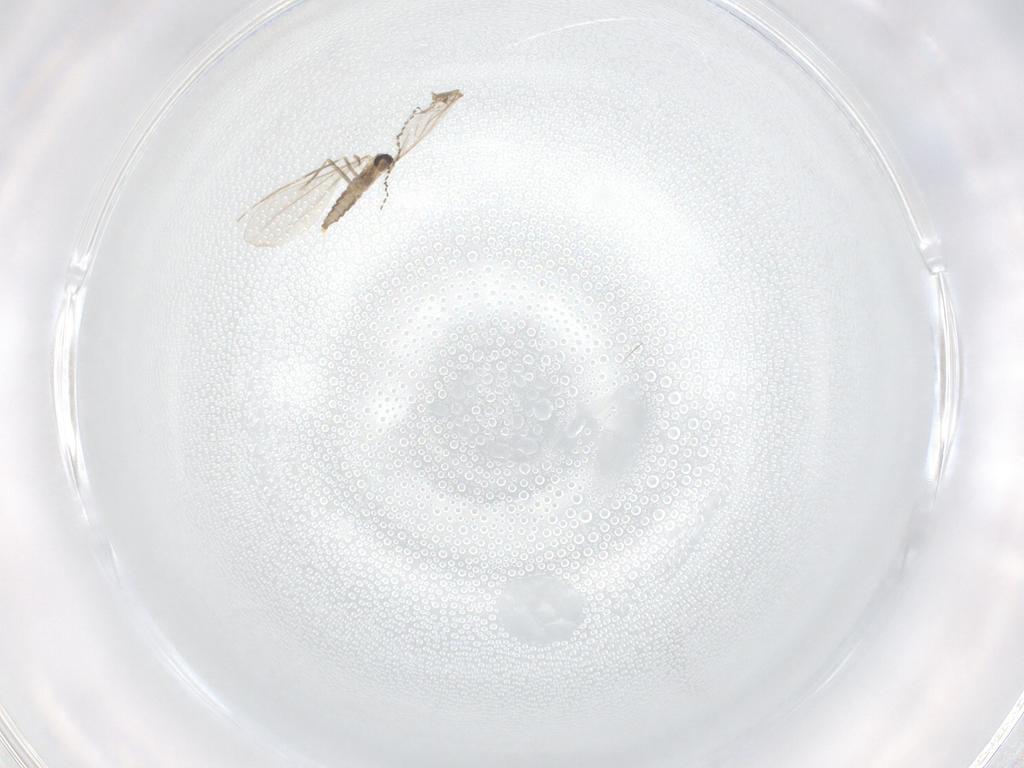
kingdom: Animalia
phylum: Arthropoda
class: Insecta
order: Diptera
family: Cecidomyiidae
